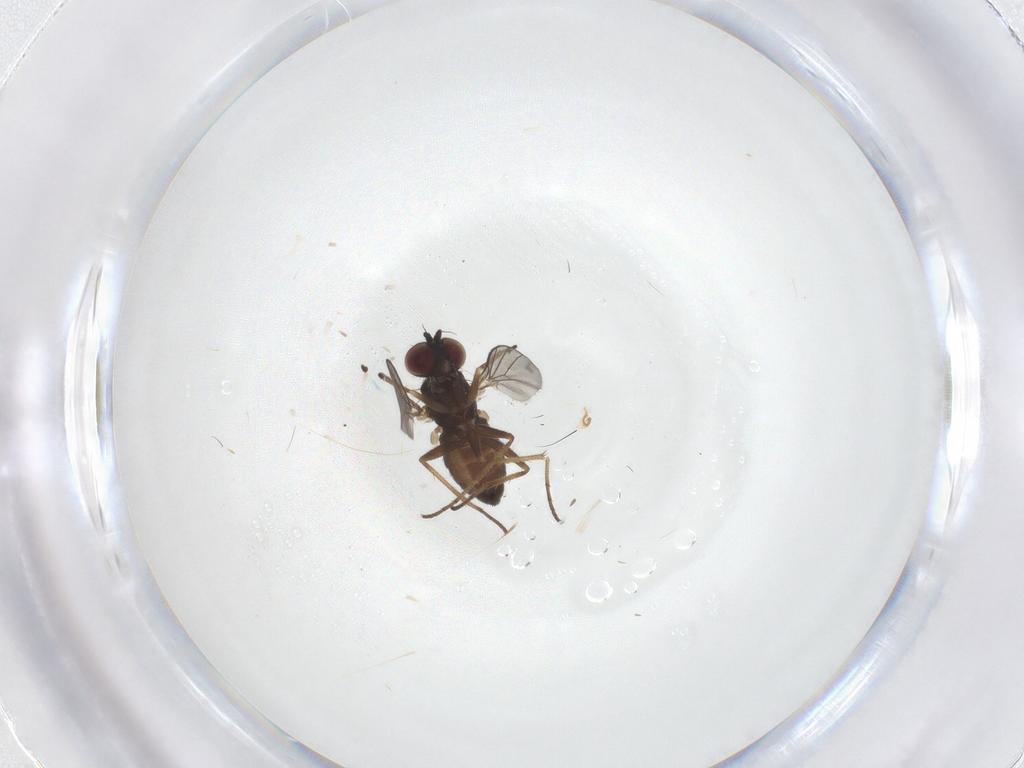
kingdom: Animalia
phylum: Arthropoda
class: Insecta
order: Diptera
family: Dolichopodidae
